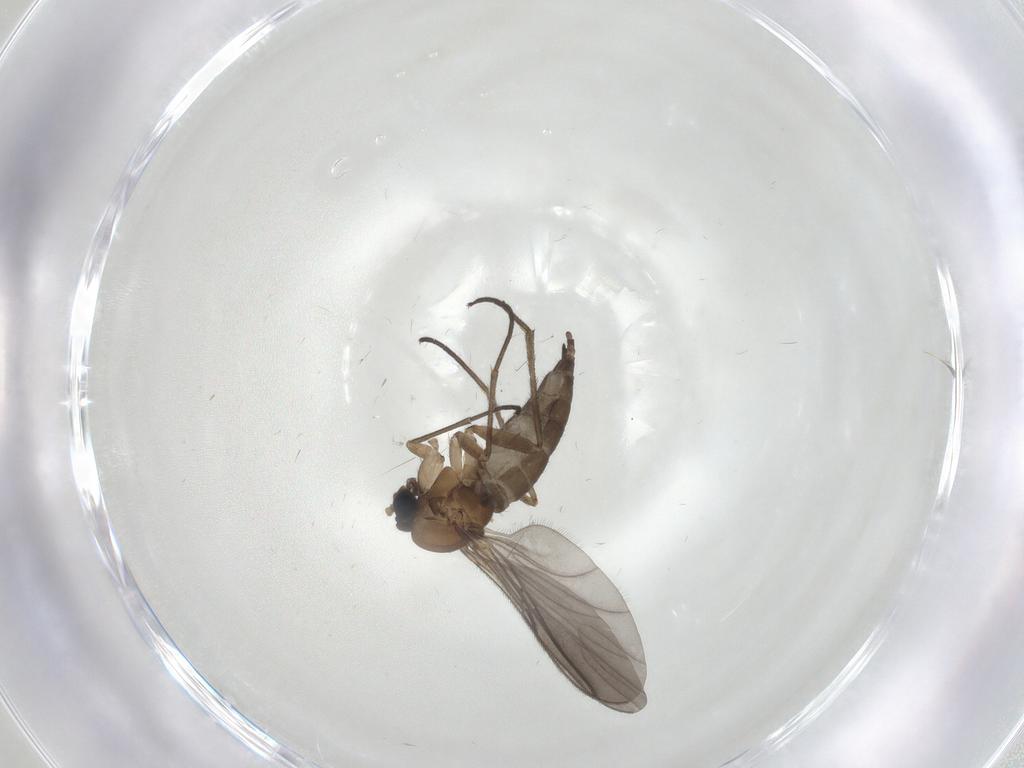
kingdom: Animalia
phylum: Arthropoda
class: Insecta
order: Diptera
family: Sciaridae
